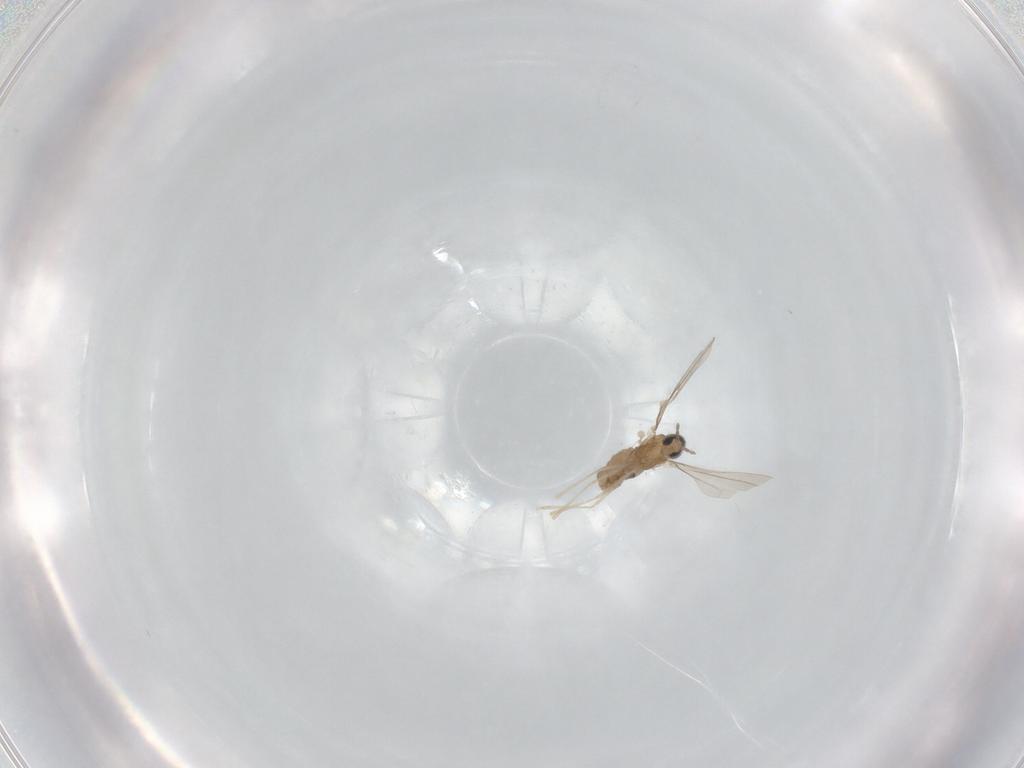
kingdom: Animalia
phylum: Arthropoda
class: Insecta
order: Diptera
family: Cecidomyiidae
